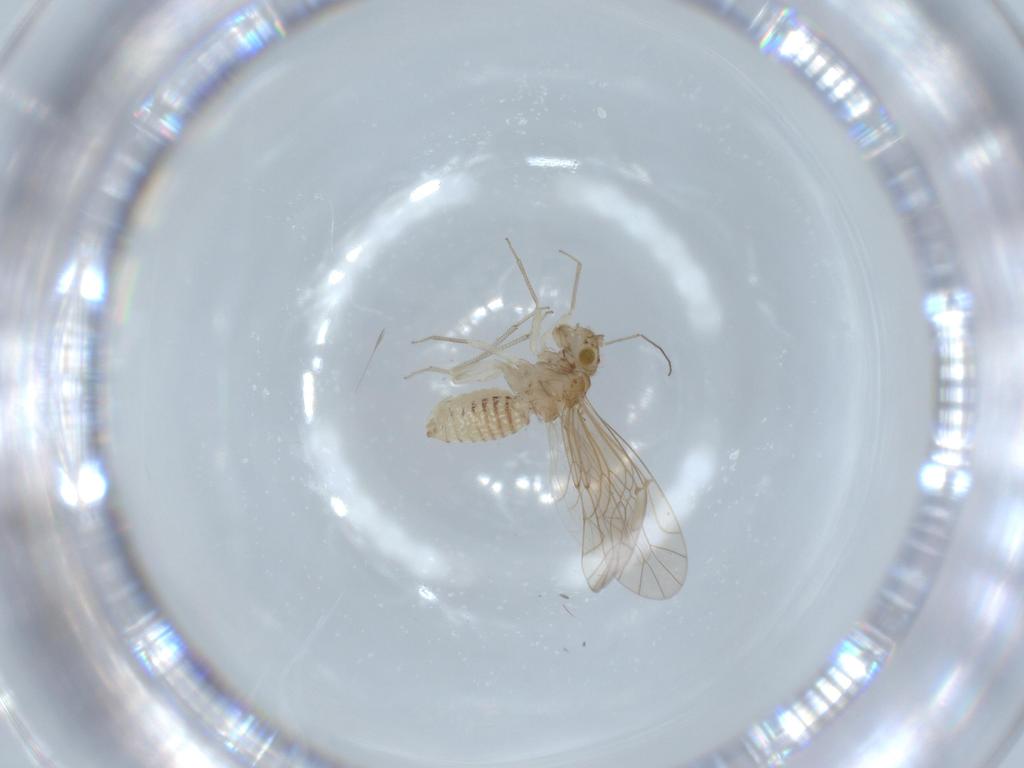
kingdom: Animalia
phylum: Arthropoda
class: Insecta
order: Psocodea
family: Lachesillidae
